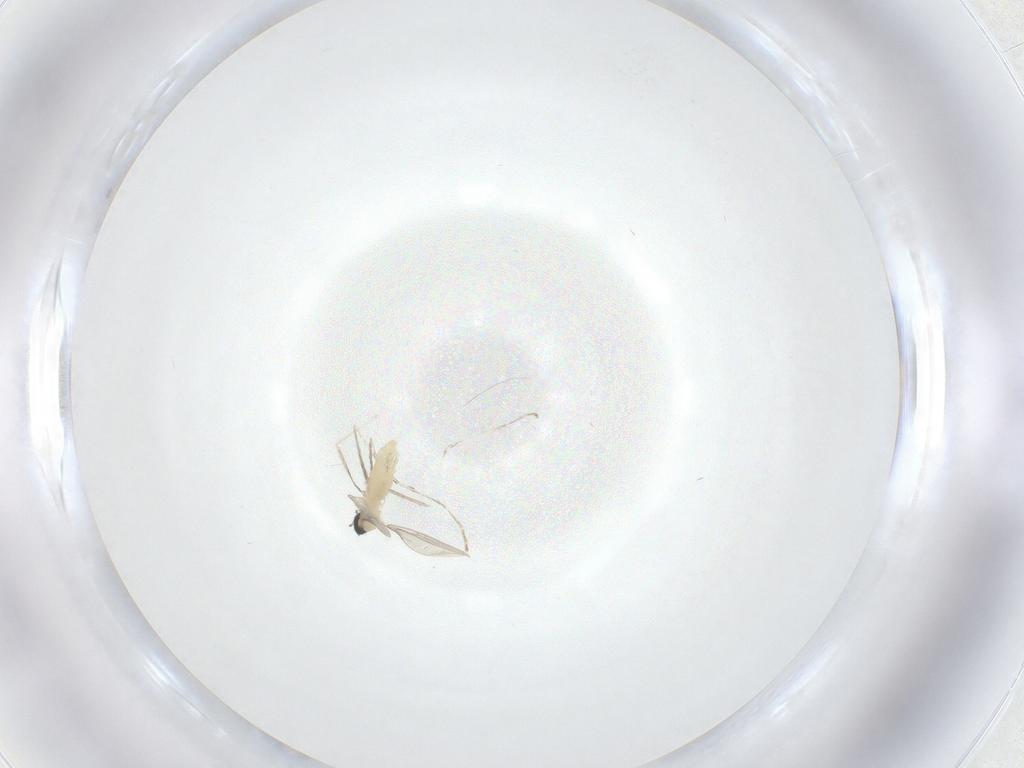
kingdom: Animalia
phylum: Arthropoda
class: Insecta
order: Diptera
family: Cecidomyiidae
